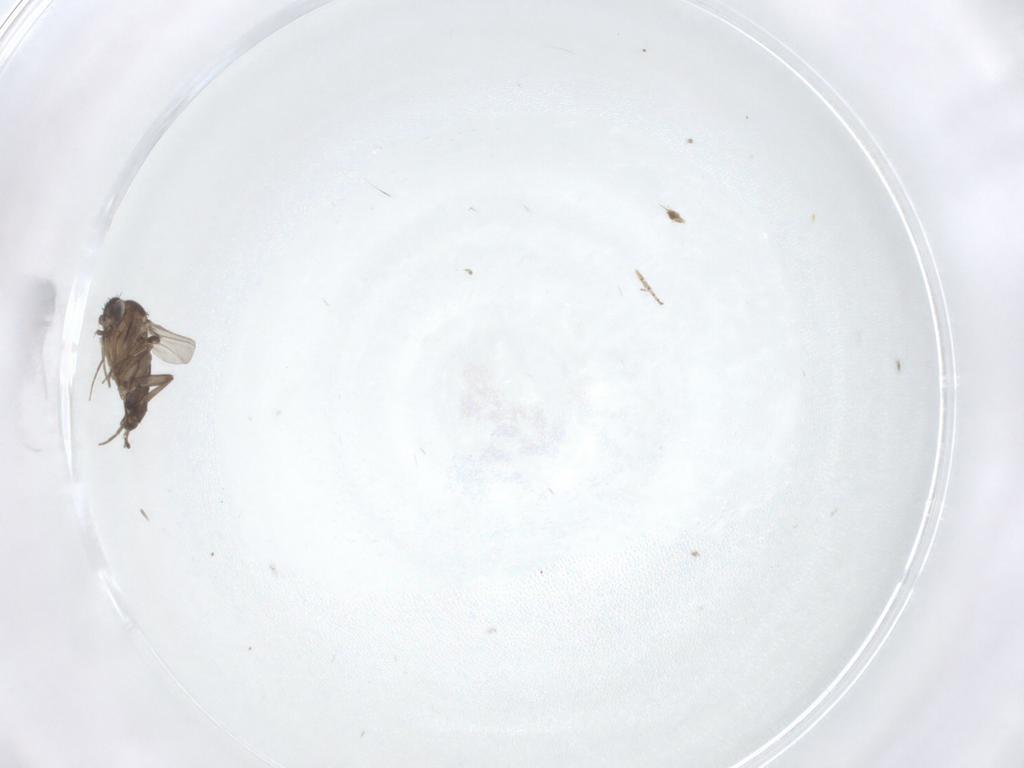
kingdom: Animalia
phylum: Arthropoda
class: Insecta
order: Diptera
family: Phoridae
